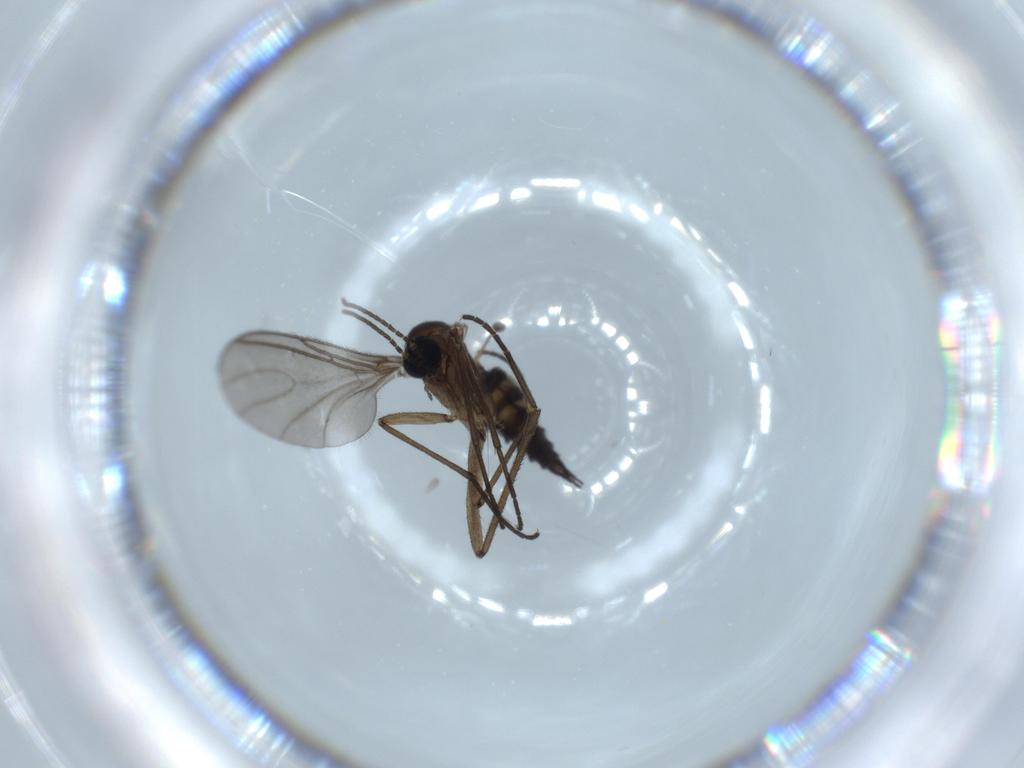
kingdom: Animalia
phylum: Arthropoda
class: Insecta
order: Diptera
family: Sciaridae
